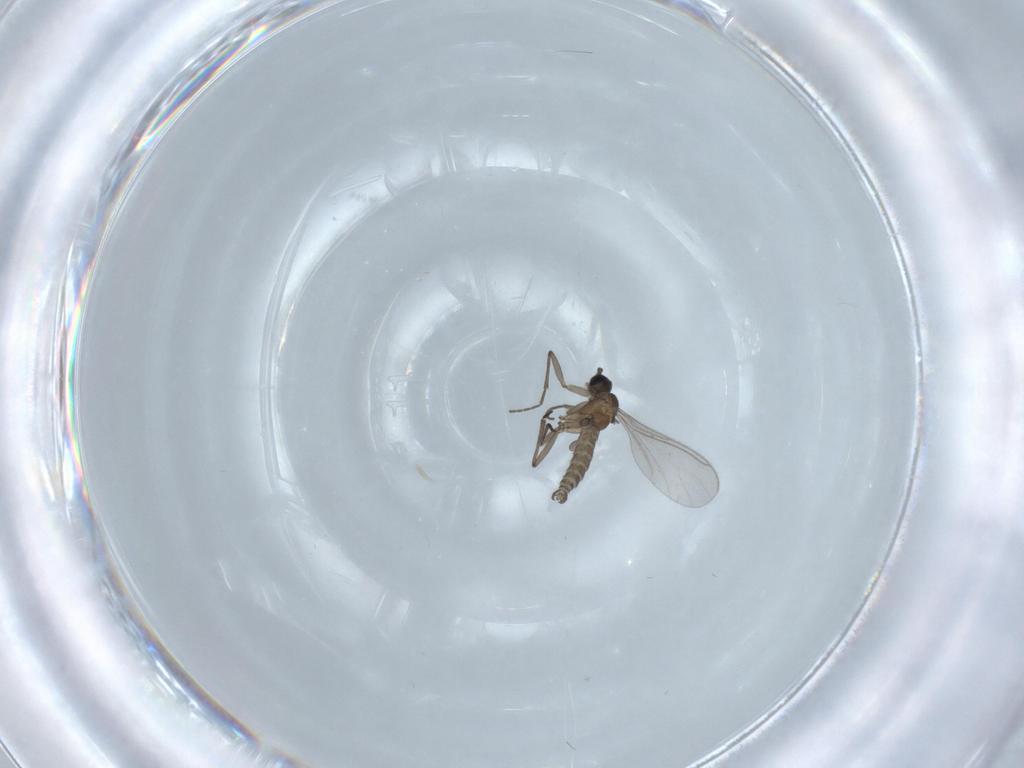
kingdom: Animalia
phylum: Arthropoda
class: Insecta
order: Diptera
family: Sciaridae
